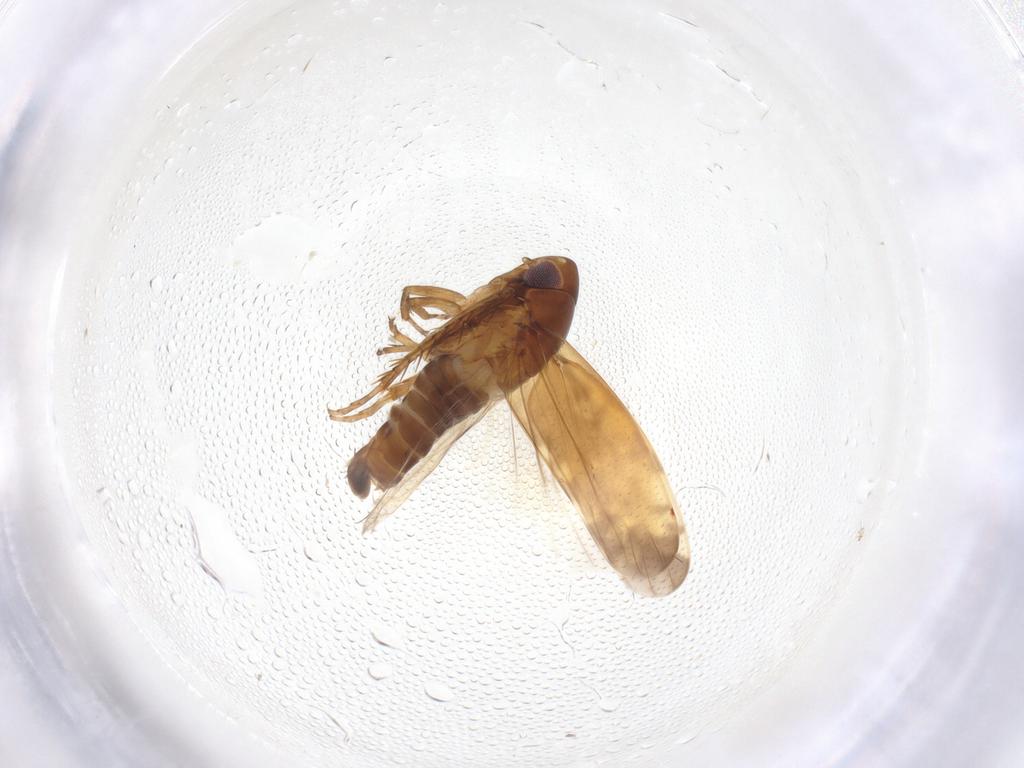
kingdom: Animalia
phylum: Arthropoda
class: Insecta
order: Hemiptera
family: Cicadellidae
